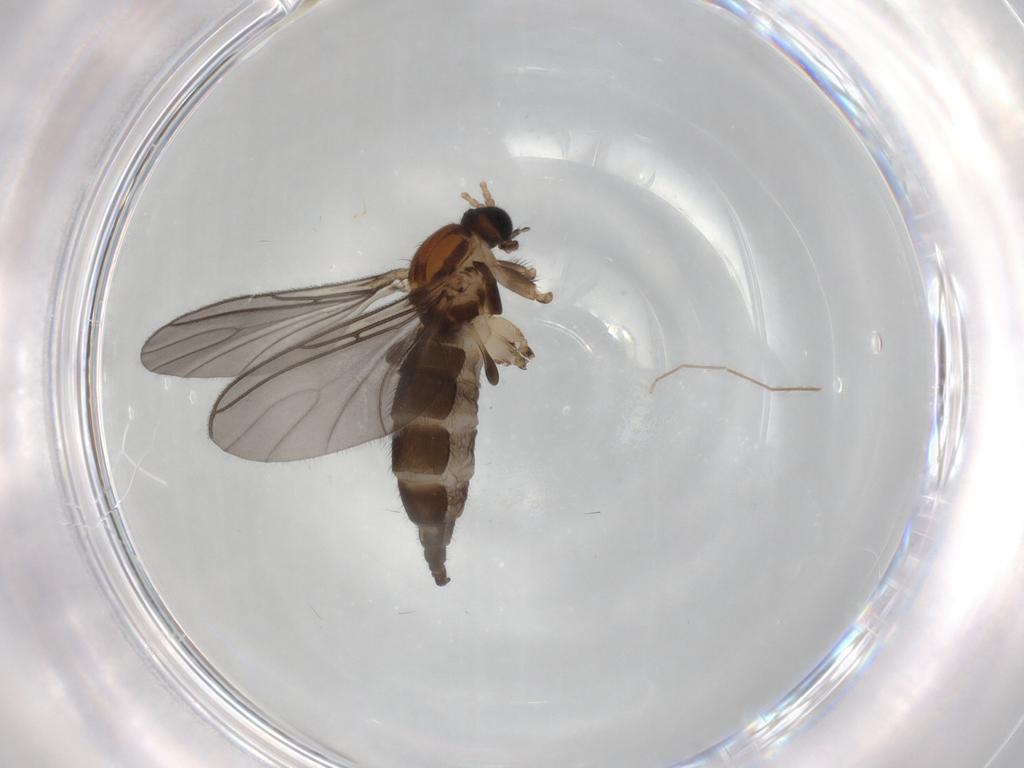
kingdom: Animalia
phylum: Arthropoda
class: Insecta
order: Diptera
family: Sciaridae
